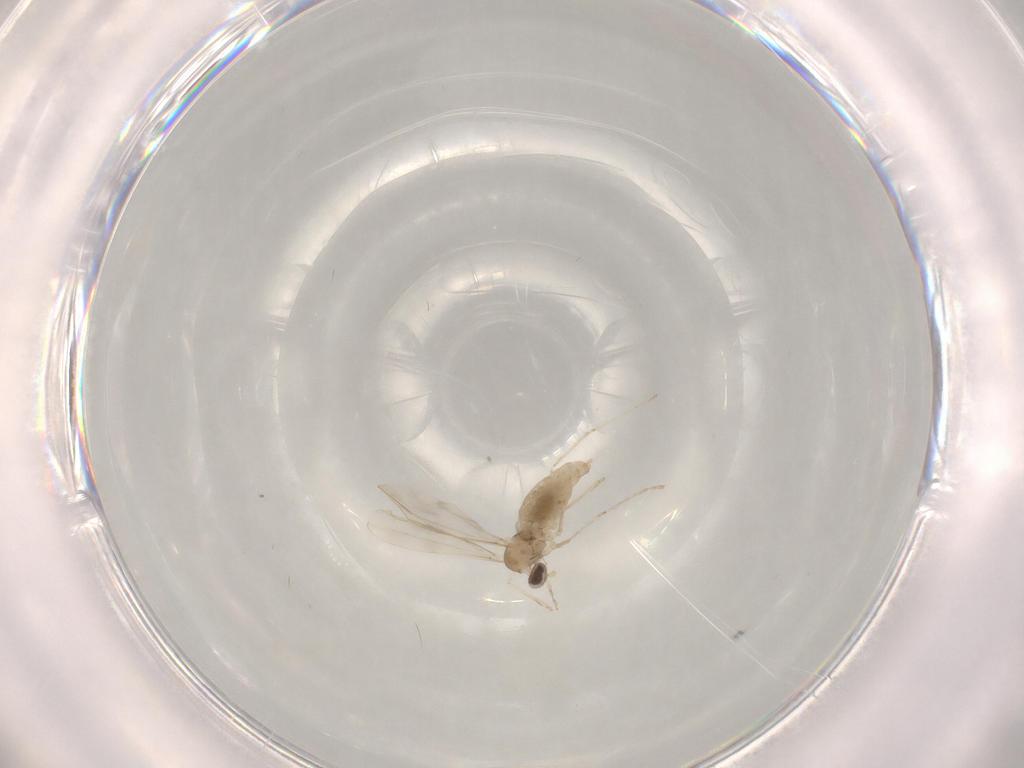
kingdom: Animalia
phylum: Arthropoda
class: Insecta
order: Diptera
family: Cecidomyiidae
